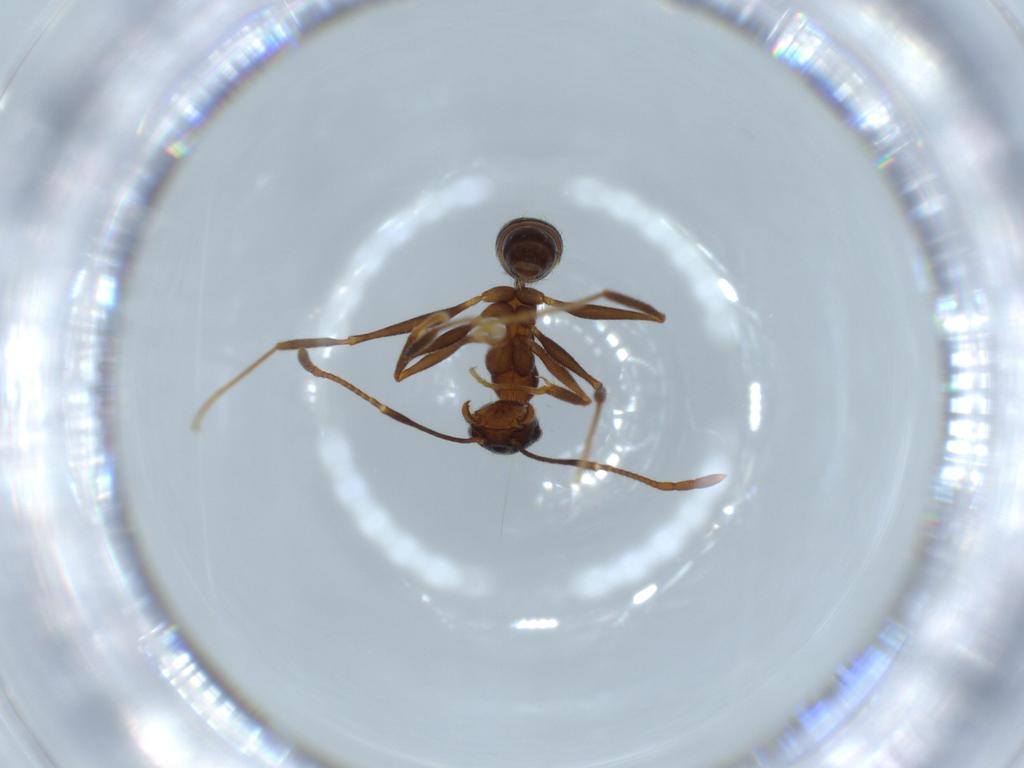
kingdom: Animalia
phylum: Arthropoda
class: Insecta
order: Hymenoptera
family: Formicidae
